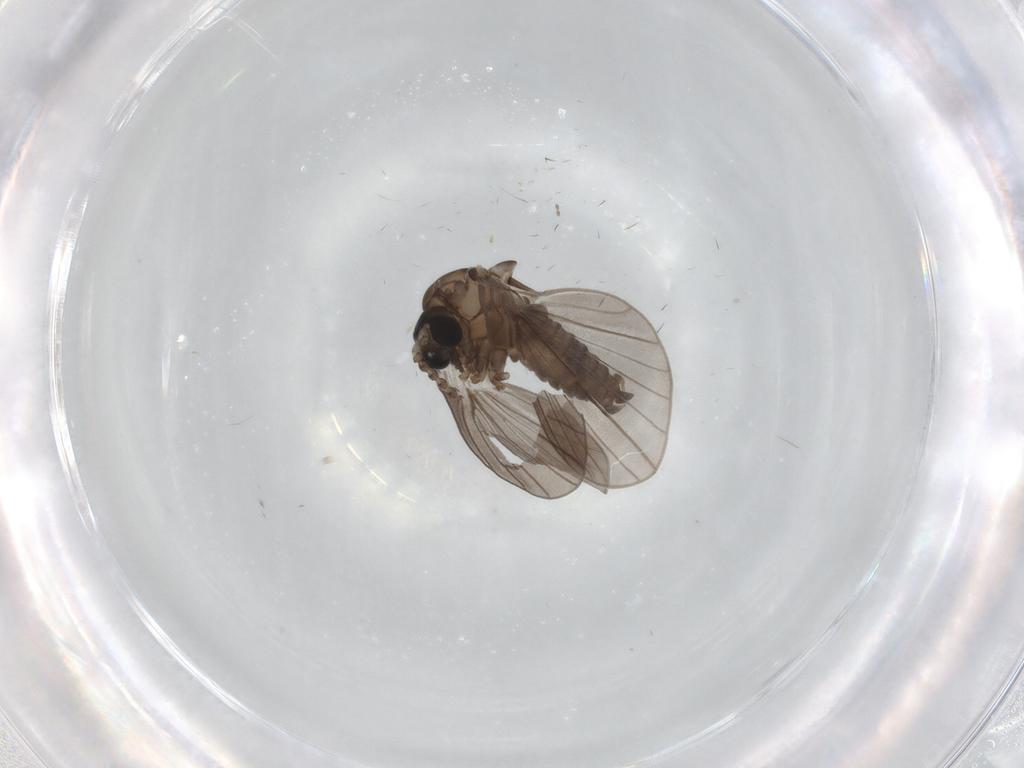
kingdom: Animalia
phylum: Arthropoda
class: Insecta
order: Diptera
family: Psychodidae
